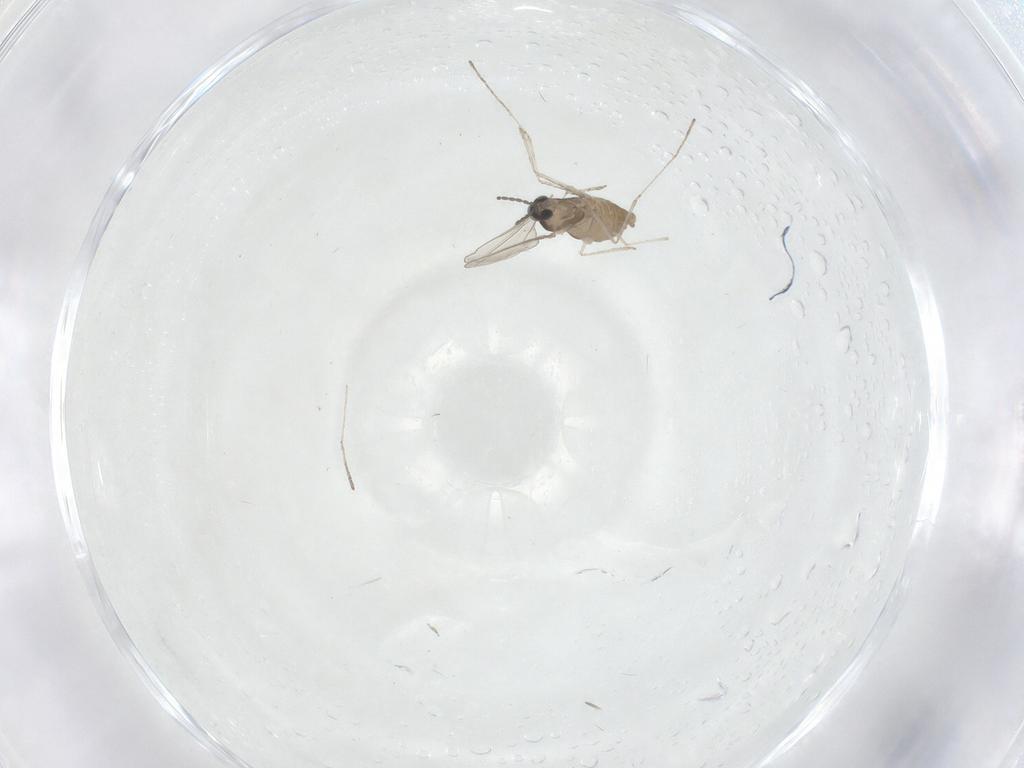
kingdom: Animalia
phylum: Arthropoda
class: Insecta
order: Diptera
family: Cecidomyiidae
